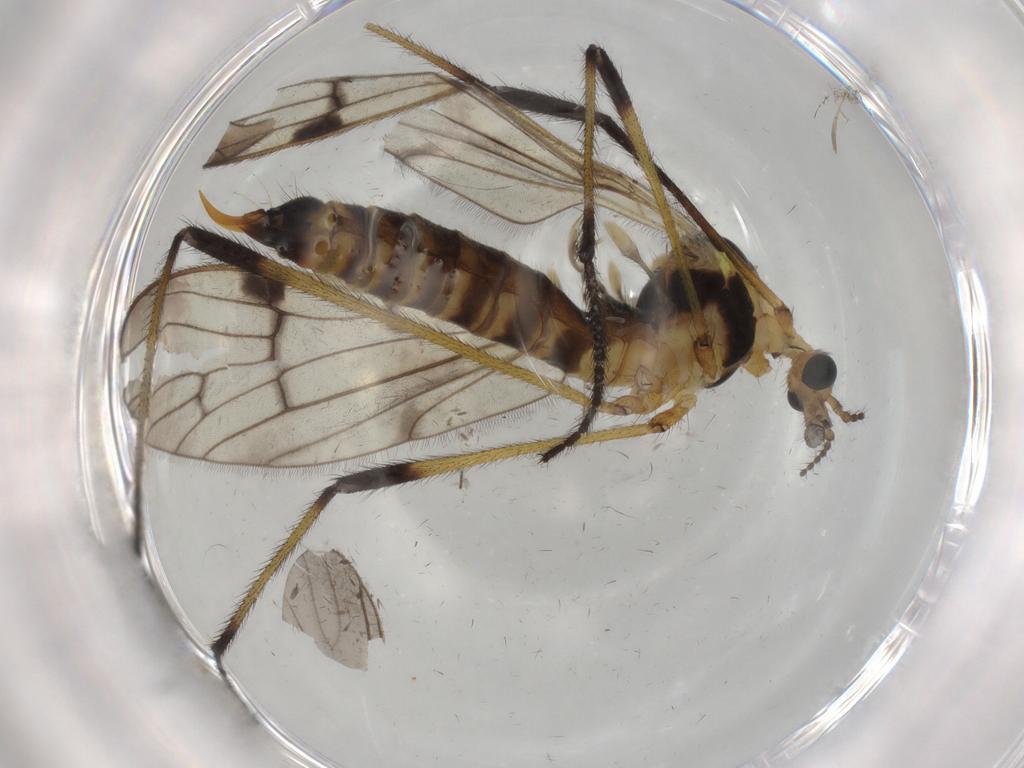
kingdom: Animalia
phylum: Arthropoda
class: Insecta
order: Diptera
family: Limoniidae
